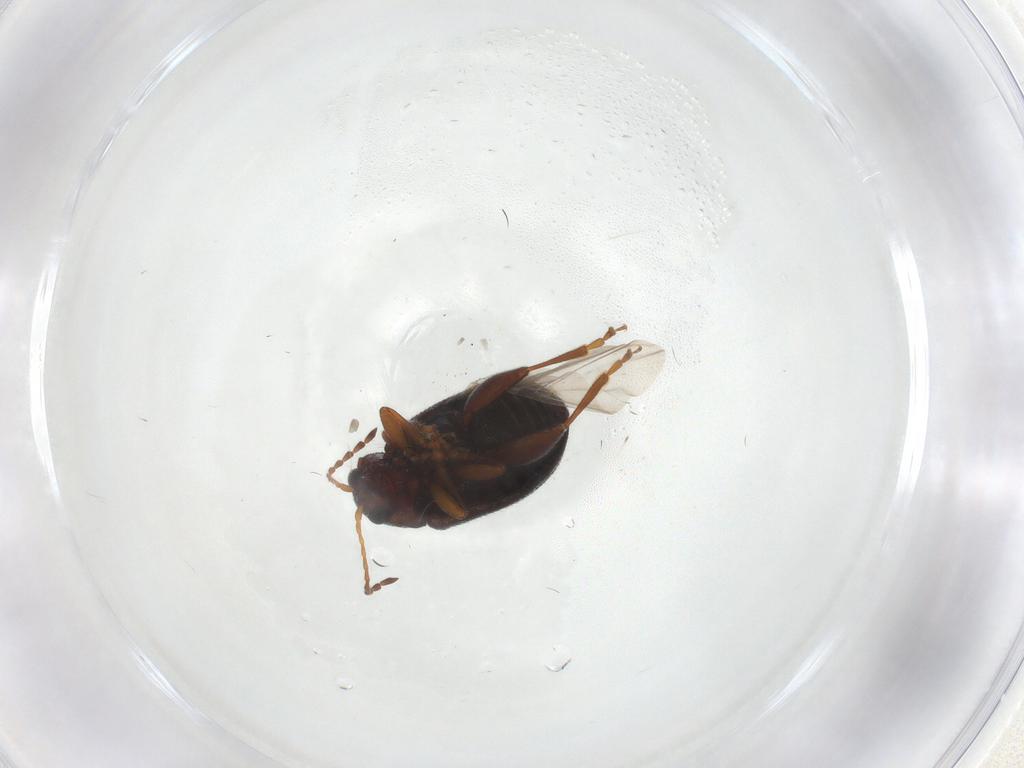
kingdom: Animalia
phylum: Arthropoda
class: Insecta
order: Coleoptera
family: Chrysomelidae
